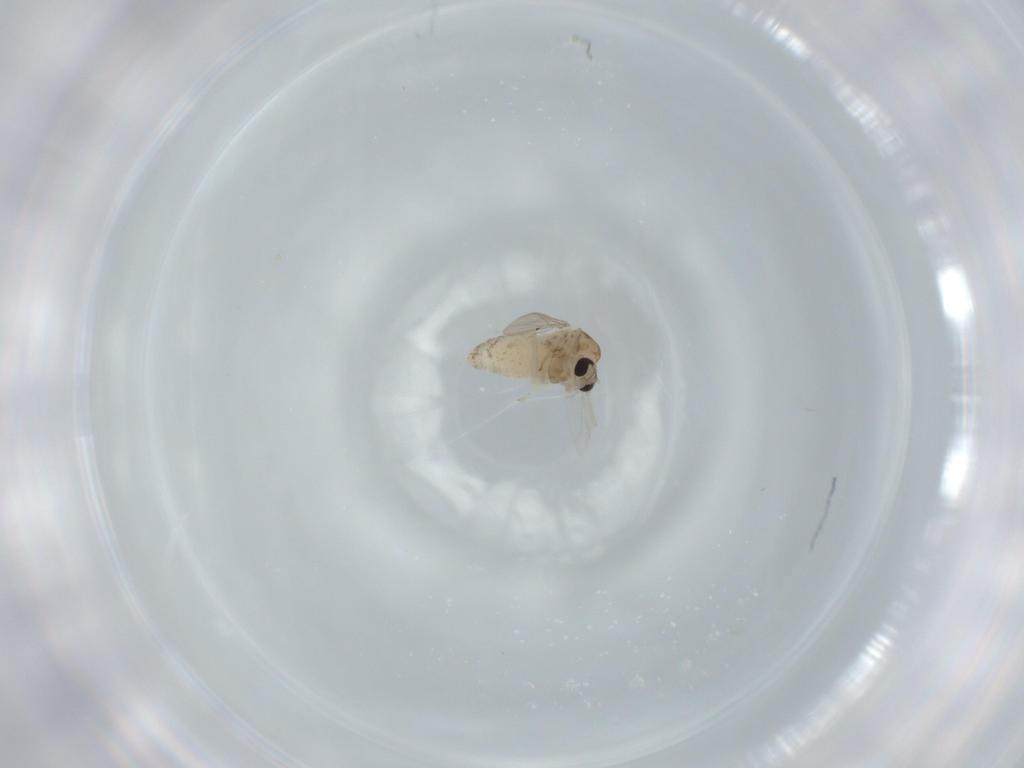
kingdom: Animalia
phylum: Arthropoda
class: Insecta
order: Diptera
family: Chironomidae
